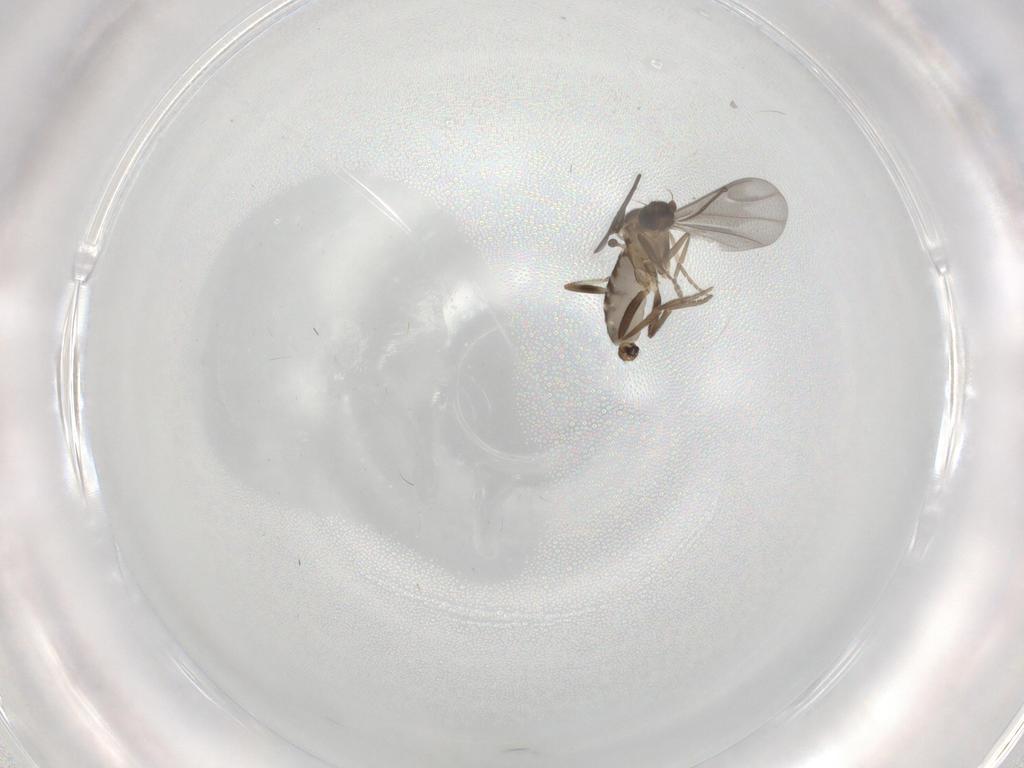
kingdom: Animalia
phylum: Arthropoda
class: Insecta
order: Diptera
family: Phoridae
